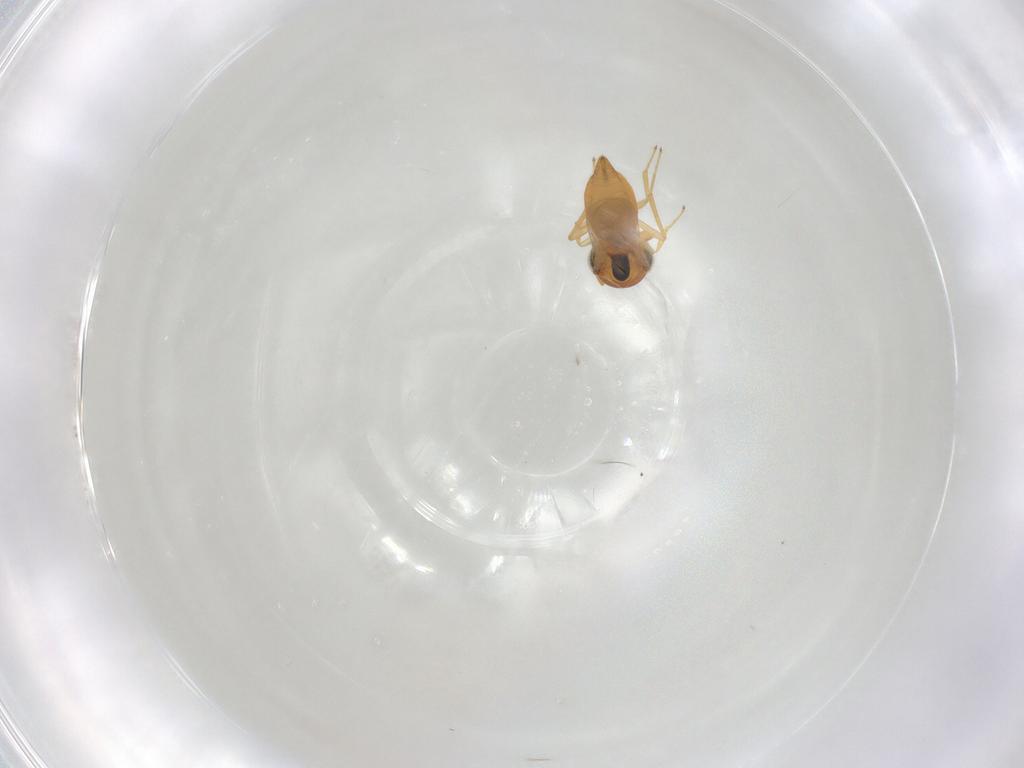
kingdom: Animalia
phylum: Arthropoda
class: Insecta
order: Hymenoptera
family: Scelionidae
